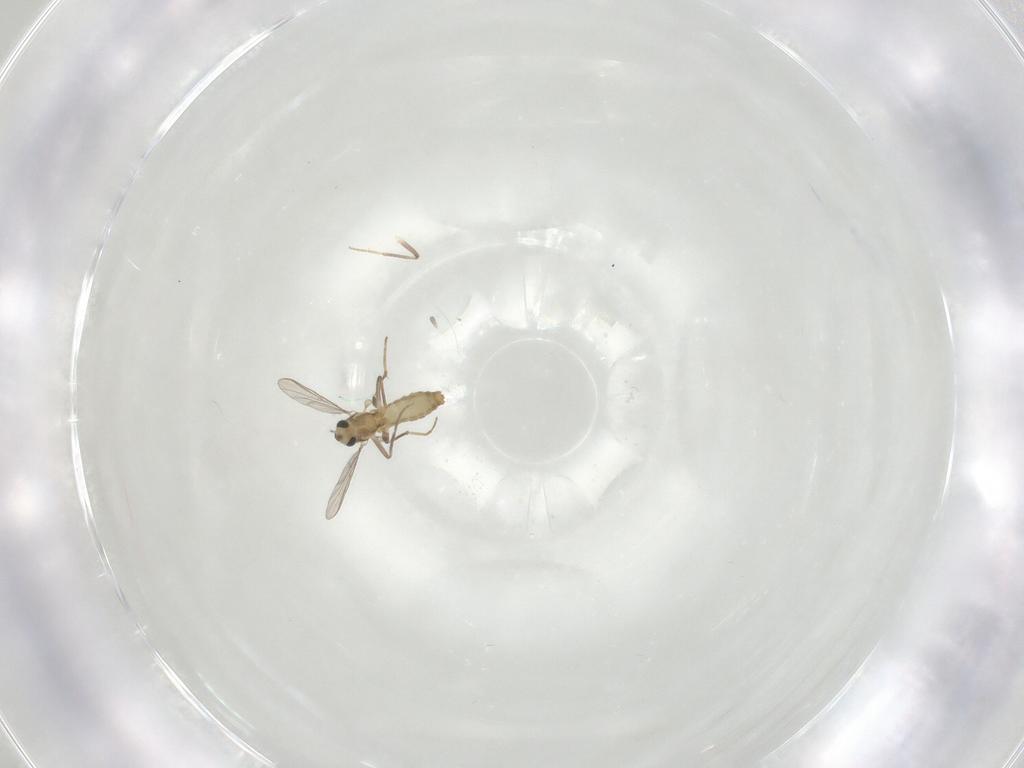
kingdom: Animalia
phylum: Arthropoda
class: Insecta
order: Diptera
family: Chironomidae
